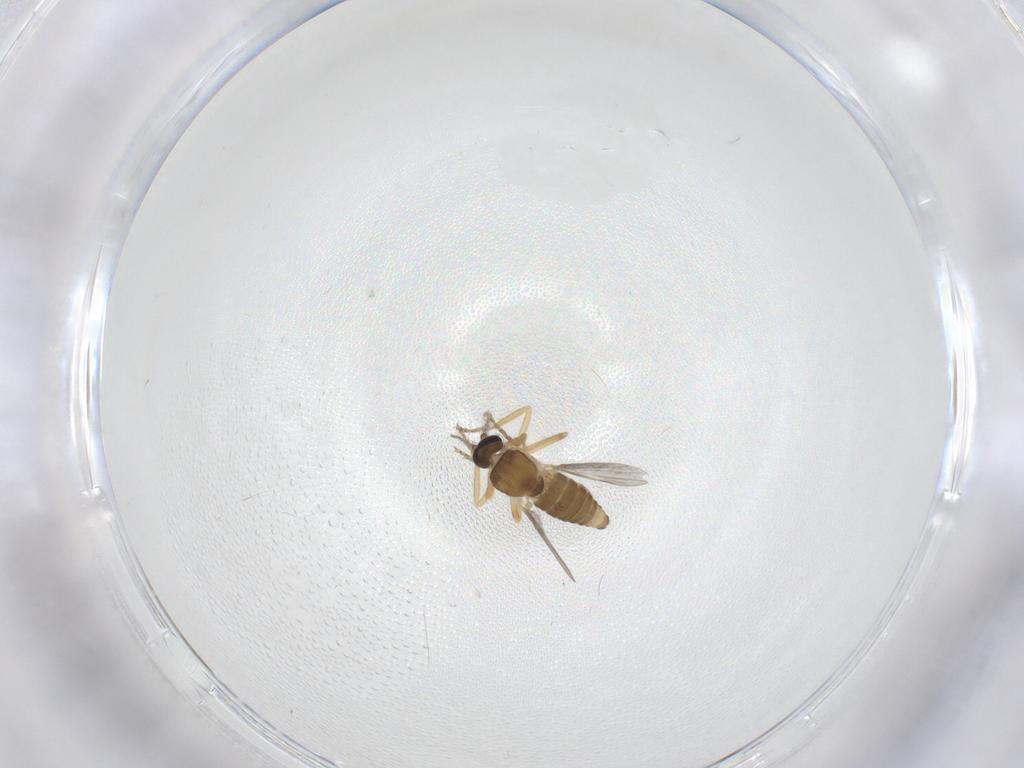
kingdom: Animalia
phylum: Arthropoda
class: Insecta
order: Diptera
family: Ceratopogonidae
